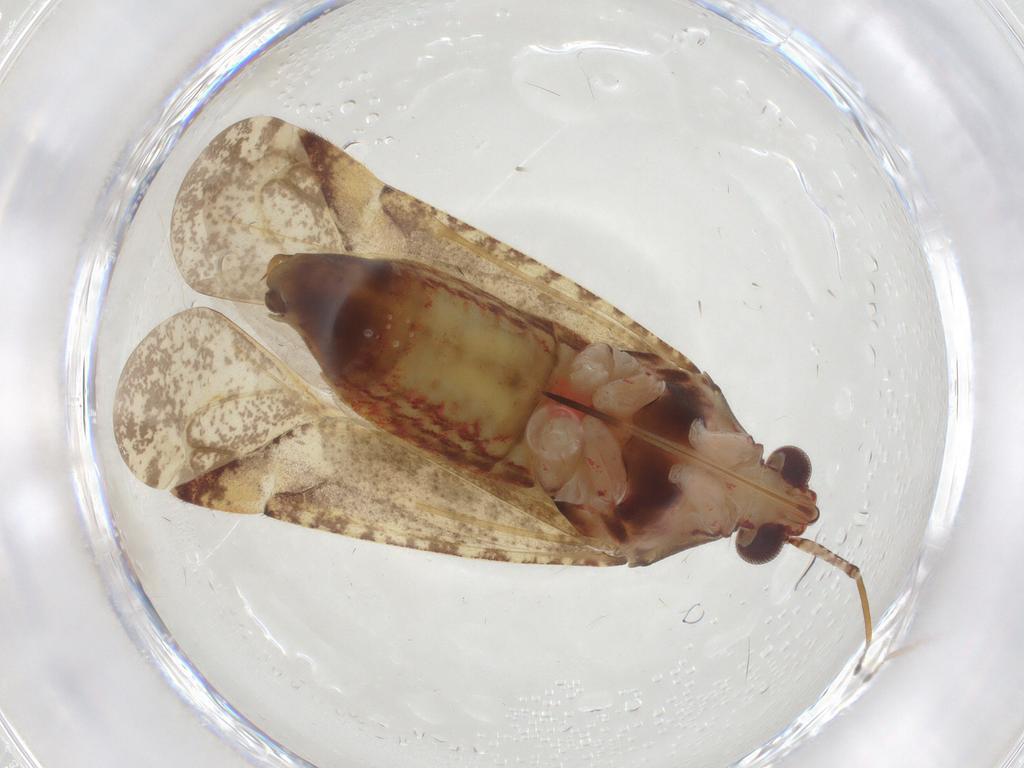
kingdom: Animalia
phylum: Arthropoda
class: Insecta
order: Hemiptera
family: Miridae
